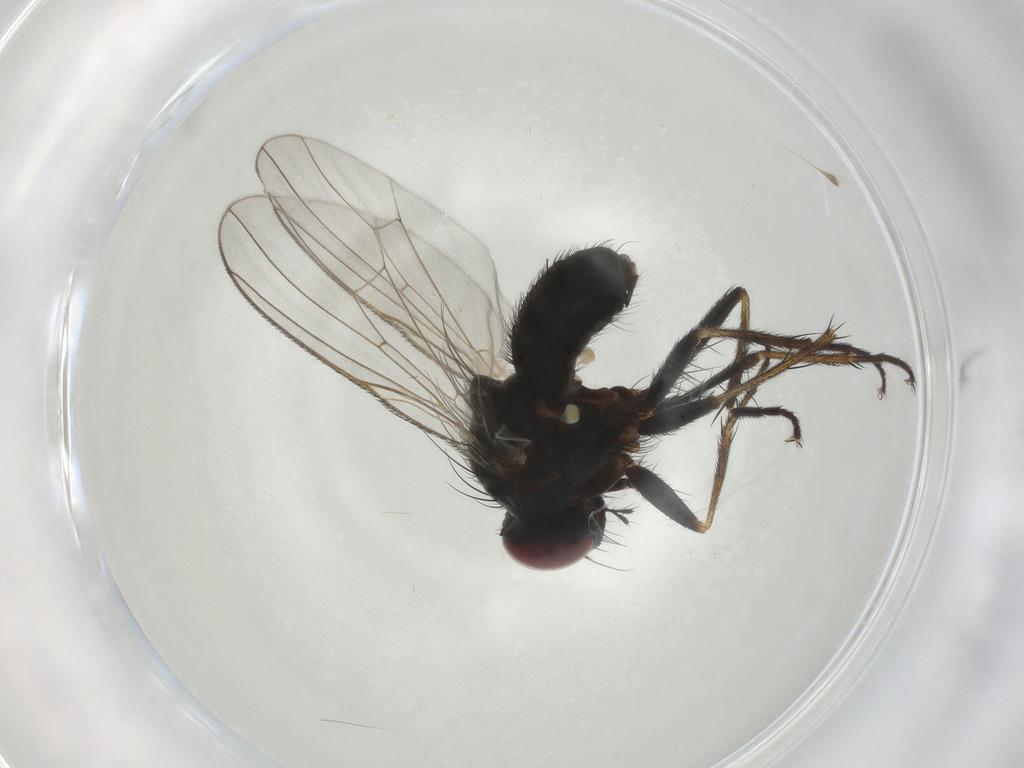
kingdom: Animalia
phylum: Arthropoda
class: Insecta
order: Diptera
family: Muscidae
